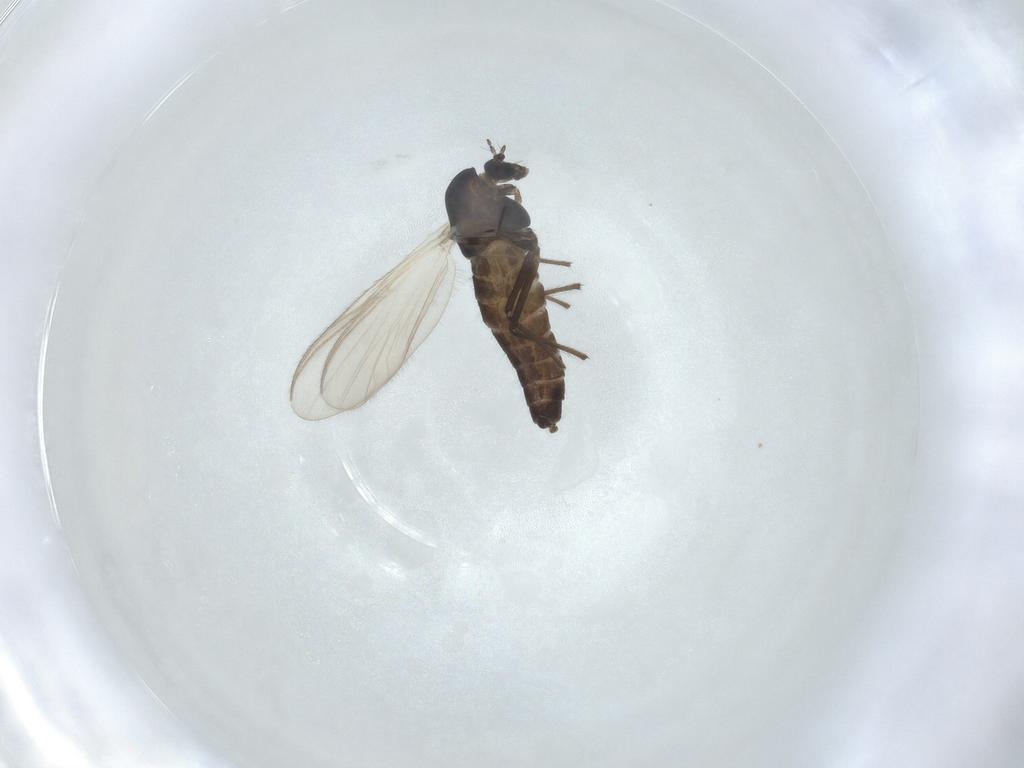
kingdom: Animalia
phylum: Arthropoda
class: Insecta
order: Diptera
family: Chironomidae
